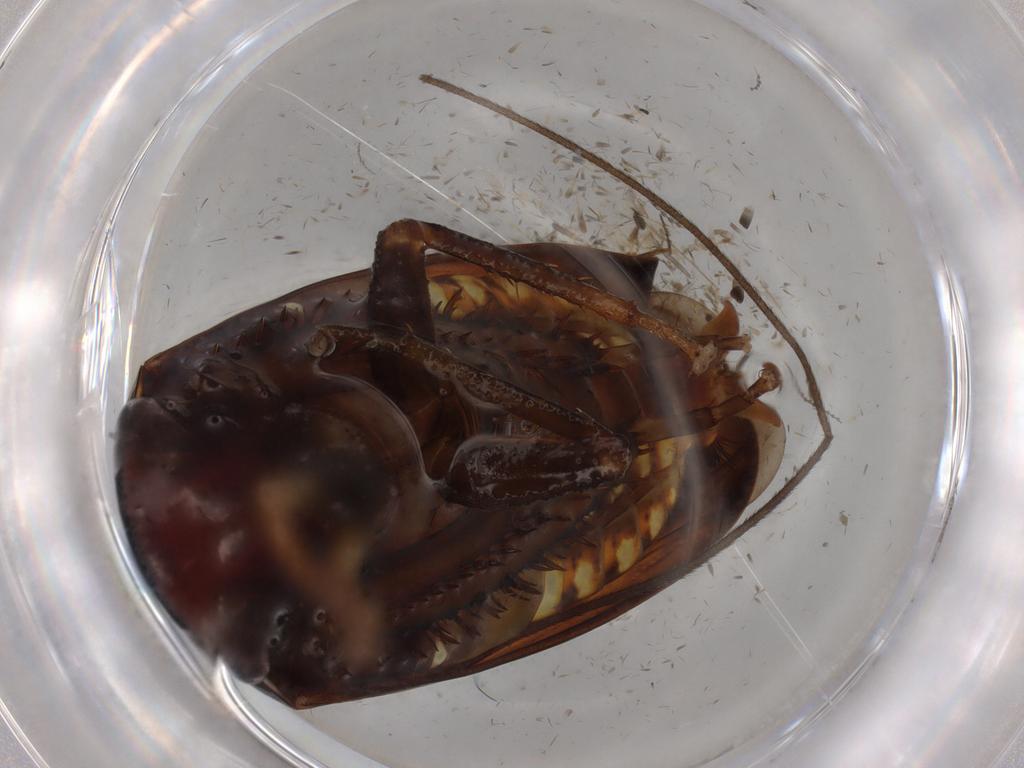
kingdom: Animalia
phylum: Arthropoda
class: Insecta
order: Hemiptera
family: Cicadellidae
